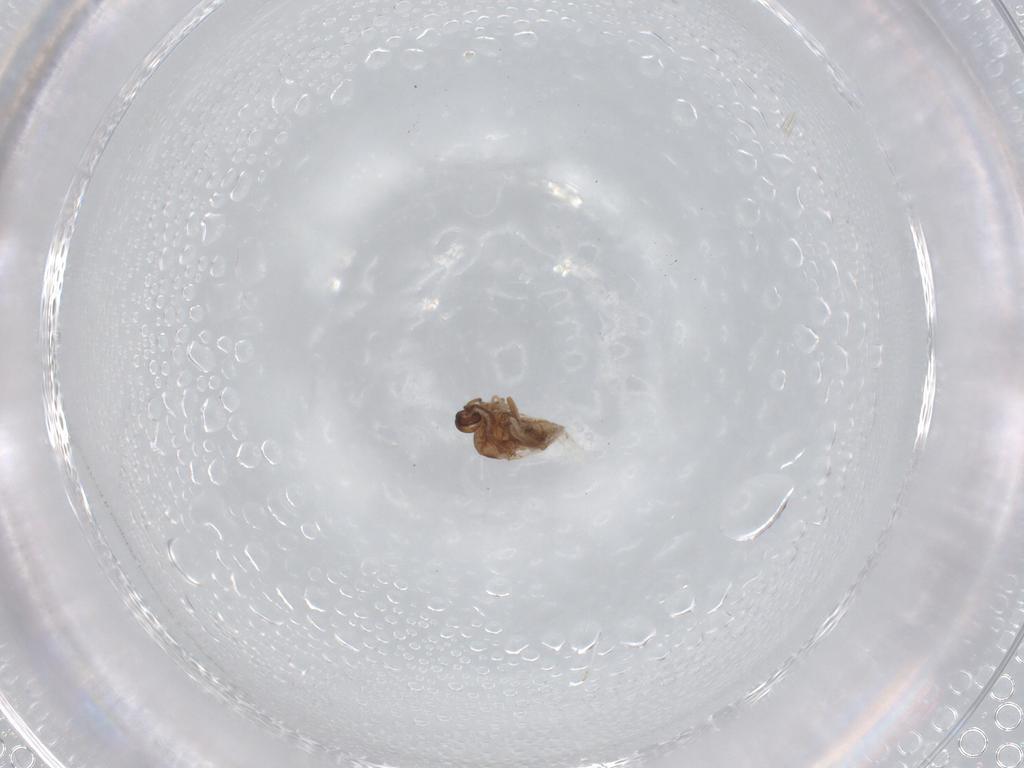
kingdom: Animalia
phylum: Arthropoda
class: Insecta
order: Diptera
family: Ceratopogonidae
